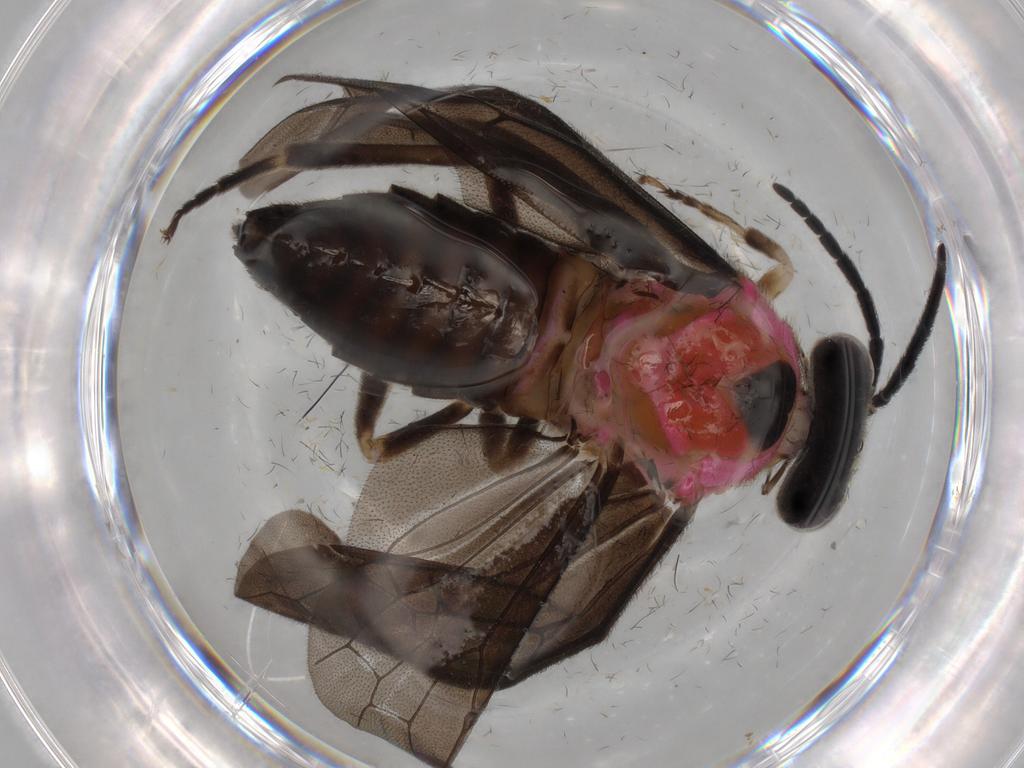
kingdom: Animalia
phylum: Arthropoda
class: Insecta
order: Hymenoptera
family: Tenthredinidae
